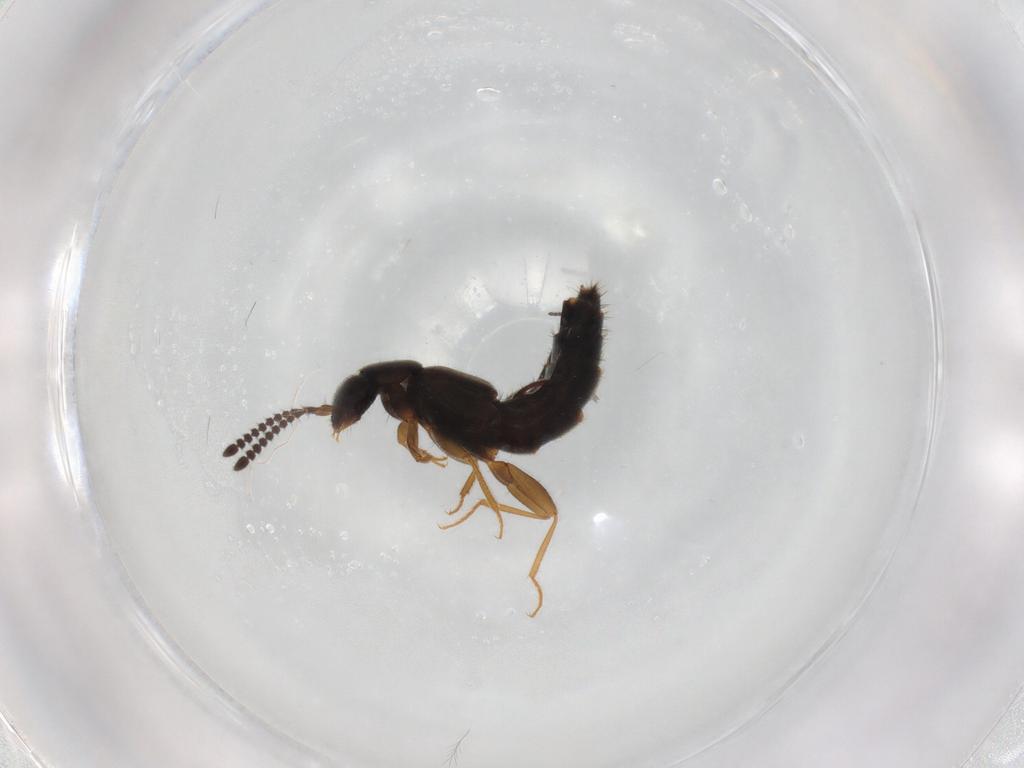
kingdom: Animalia
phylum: Arthropoda
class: Insecta
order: Coleoptera
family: Staphylinidae
